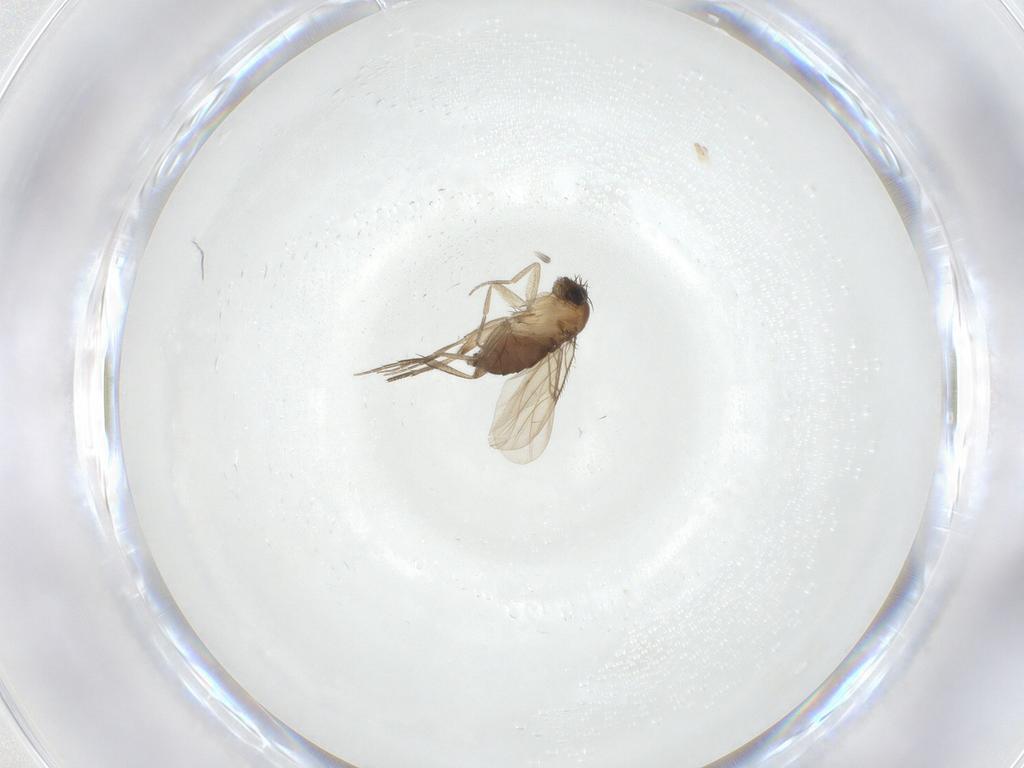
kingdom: Animalia
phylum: Arthropoda
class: Insecta
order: Diptera
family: Phoridae
